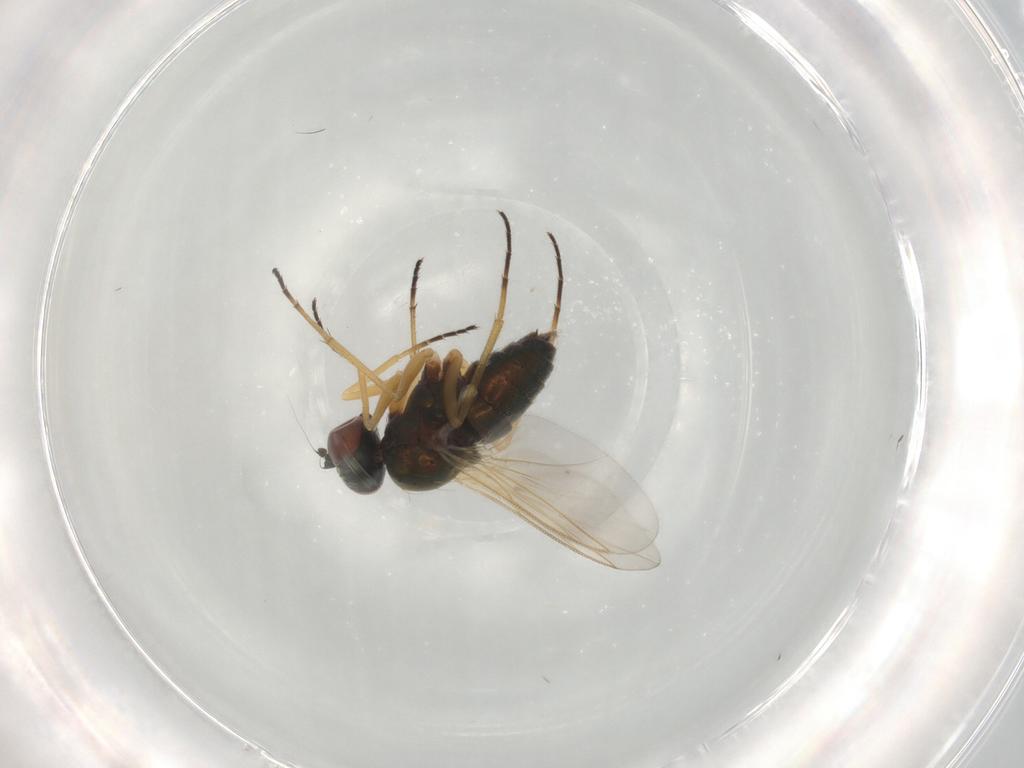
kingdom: Animalia
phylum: Arthropoda
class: Insecta
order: Diptera
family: Dolichopodidae
